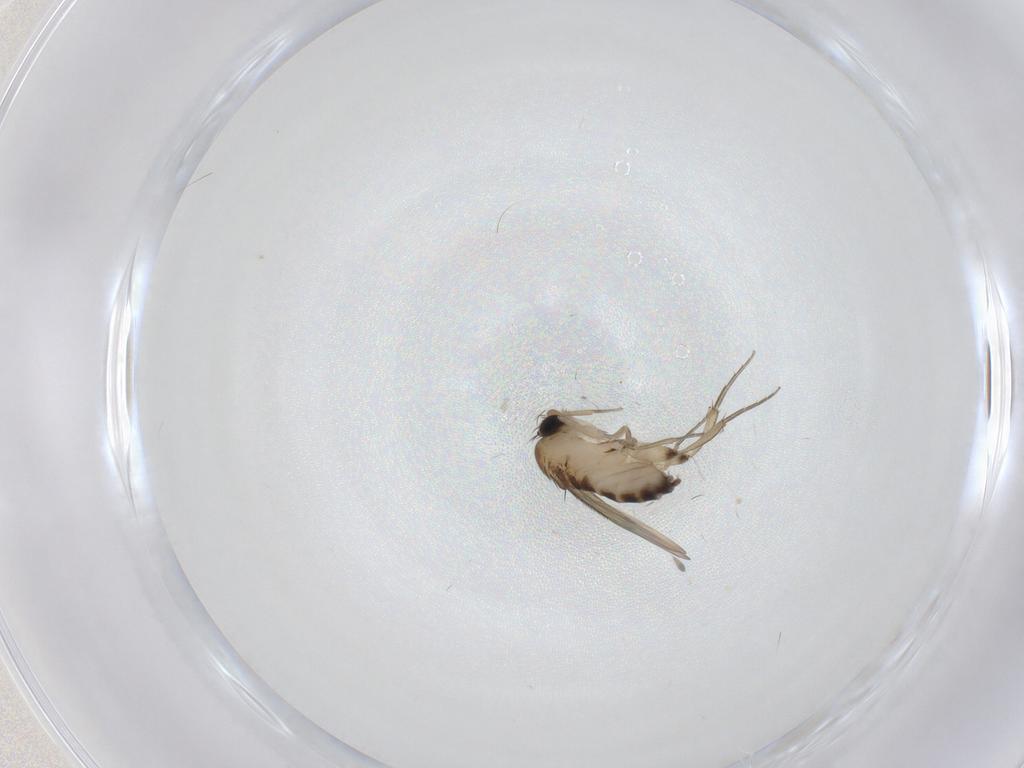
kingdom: Animalia
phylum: Arthropoda
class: Insecta
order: Diptera
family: Phoridae
